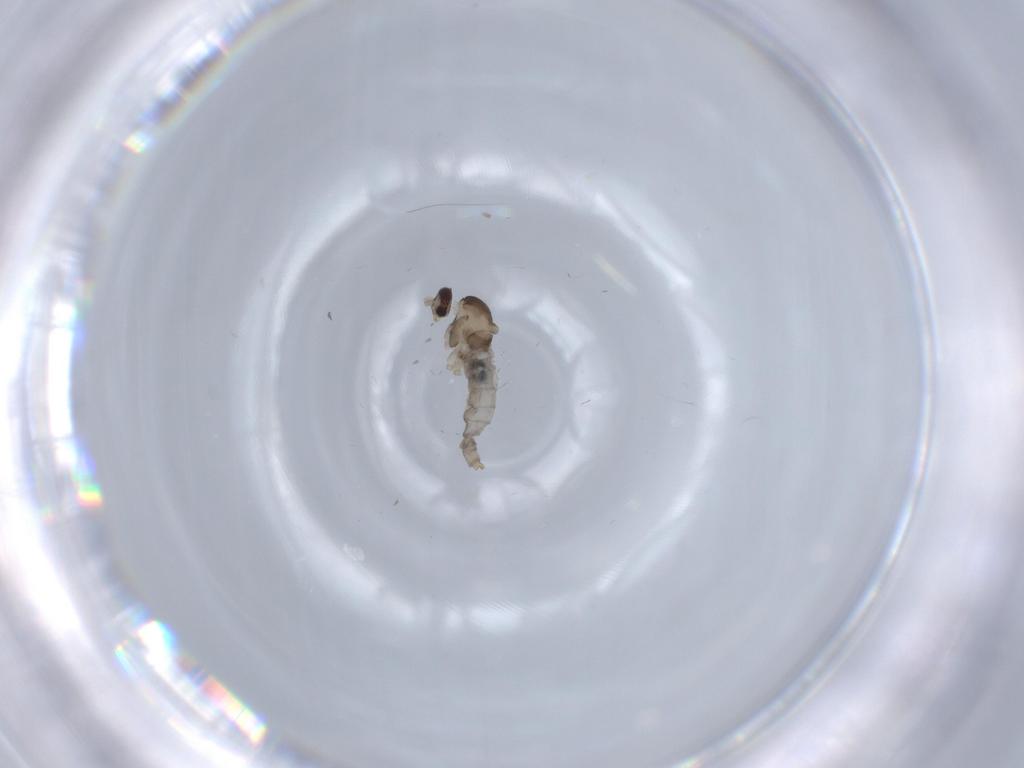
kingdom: Animalia
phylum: Arthropoda
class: Insecta
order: Diptera
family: Cecidomyiidae
